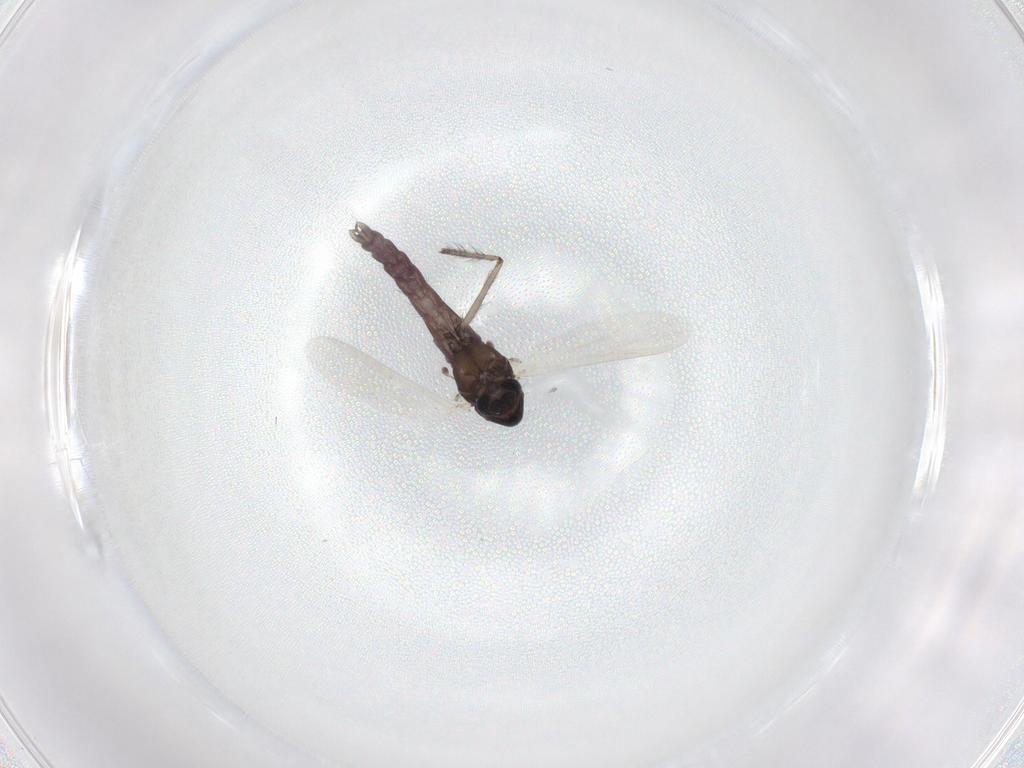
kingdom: Animalia
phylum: Arthropoda
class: Insecta
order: Diptera
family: Chironomidae
